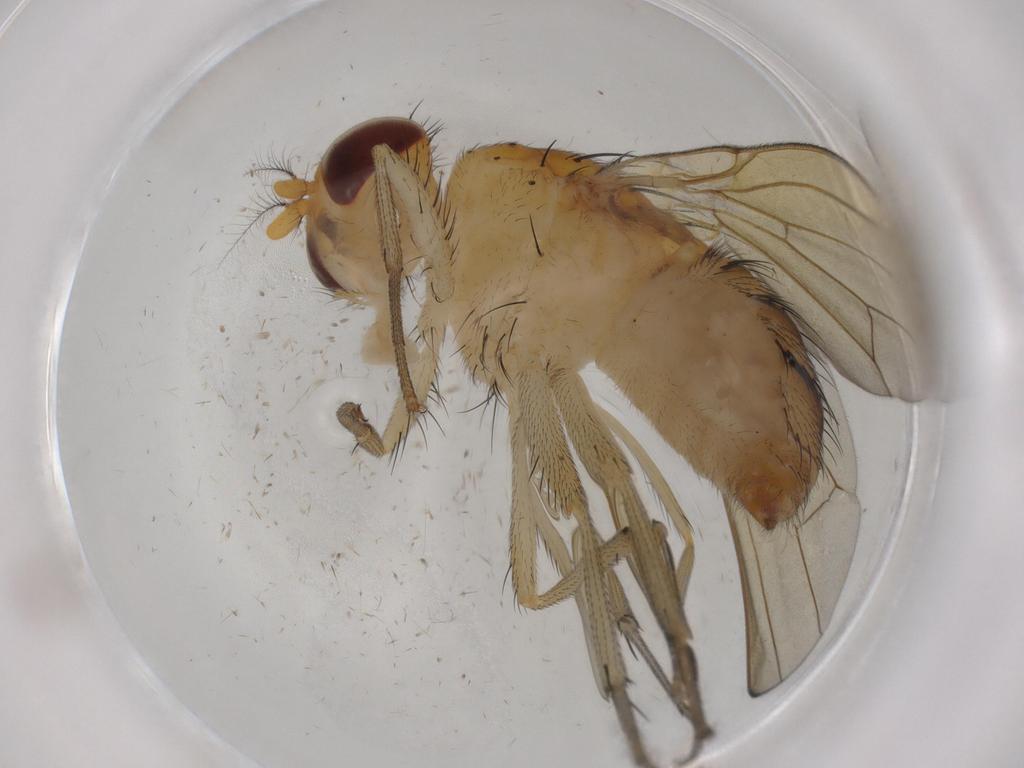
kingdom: Animalia
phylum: Arthropoda
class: Insecta
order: Diptera
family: Lauxaniidae
